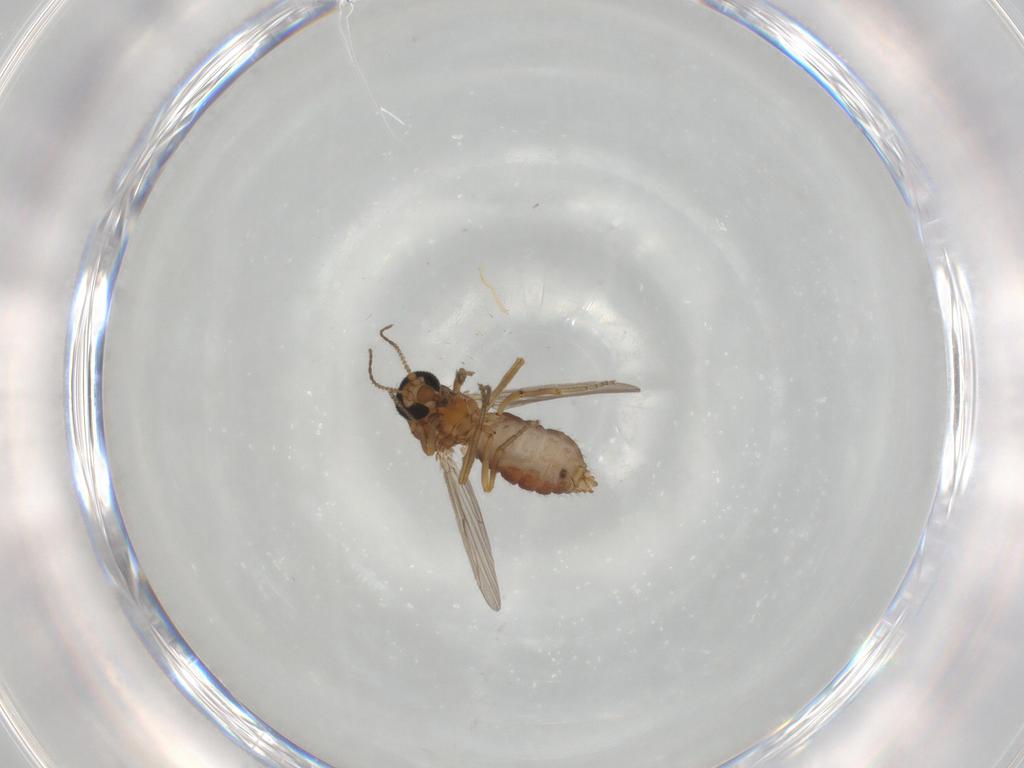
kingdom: Animalia
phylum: Arthropoda
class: Insecta
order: Diptera
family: Ceratopogonidae
